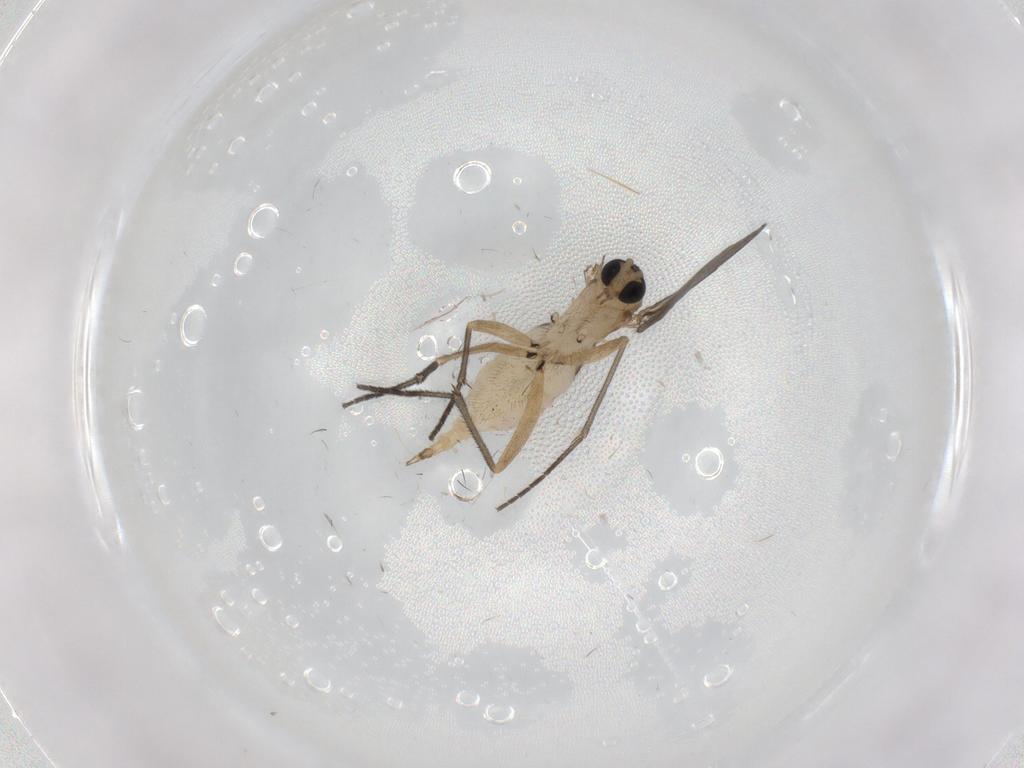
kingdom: Animalia
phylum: Arthropoda
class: Insecta
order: Diptera
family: Sciaridae
